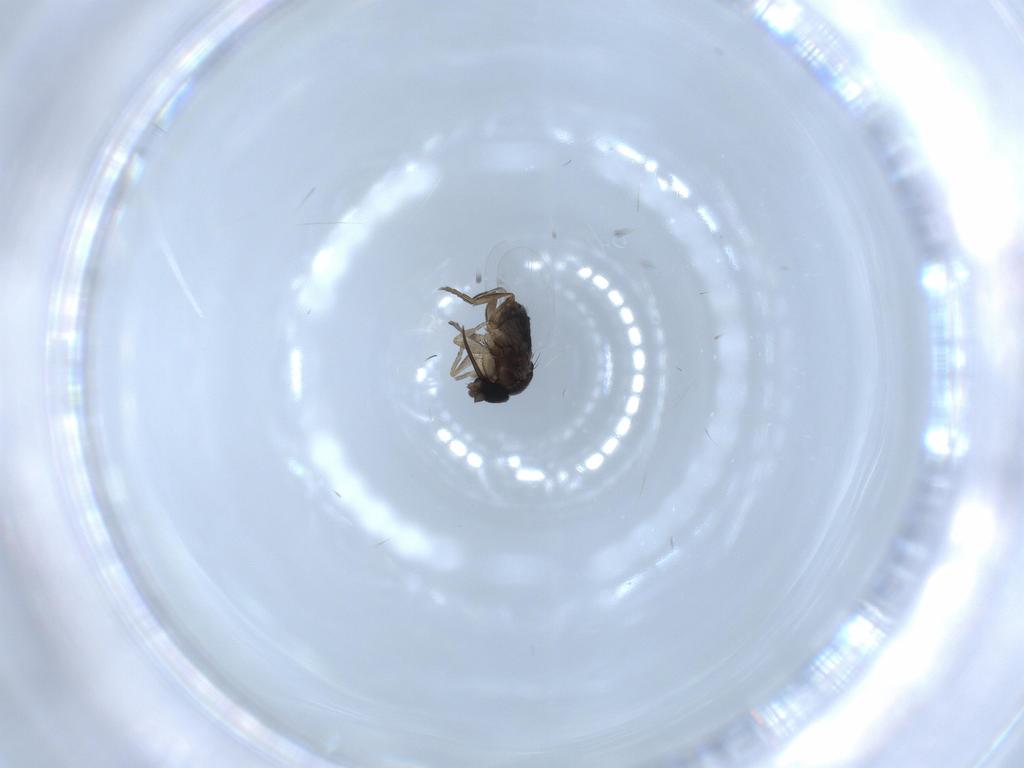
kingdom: Animalia
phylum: Arthropoda
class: Insecta
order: Diptera
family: Phoridae
